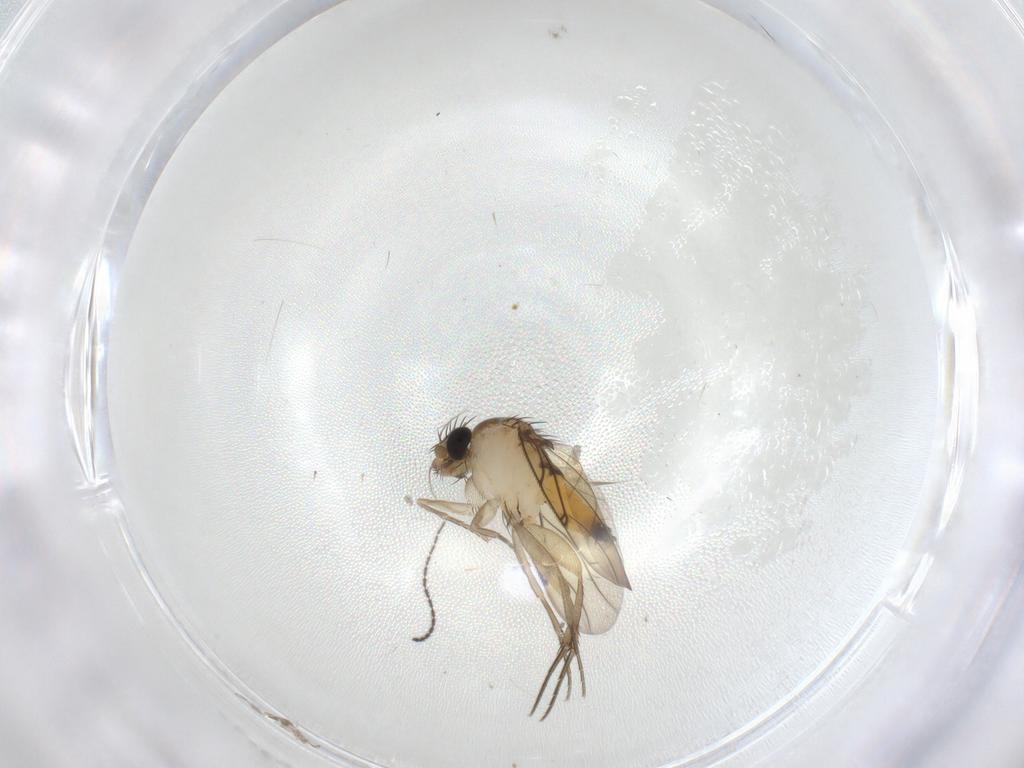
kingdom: Animalia
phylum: Arthropoda
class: Insecta
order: Diptera
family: Sciaridae
